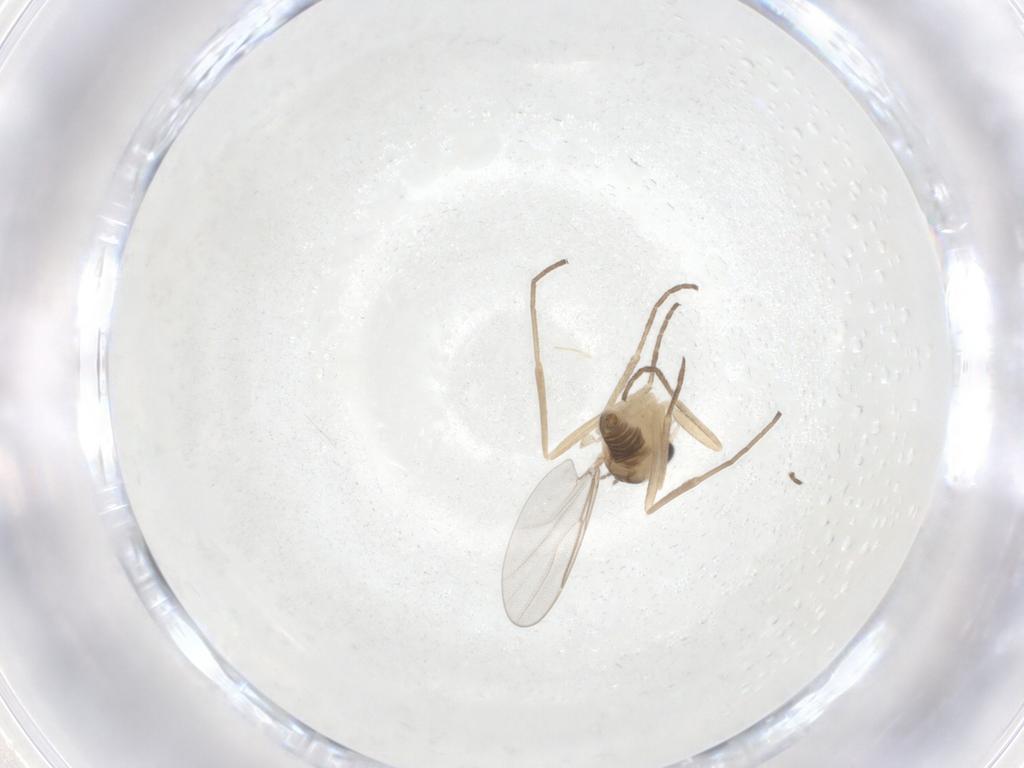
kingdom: Animalia
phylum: Arthropoda
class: Insecta
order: Diptera
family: Cecidomyiidae
